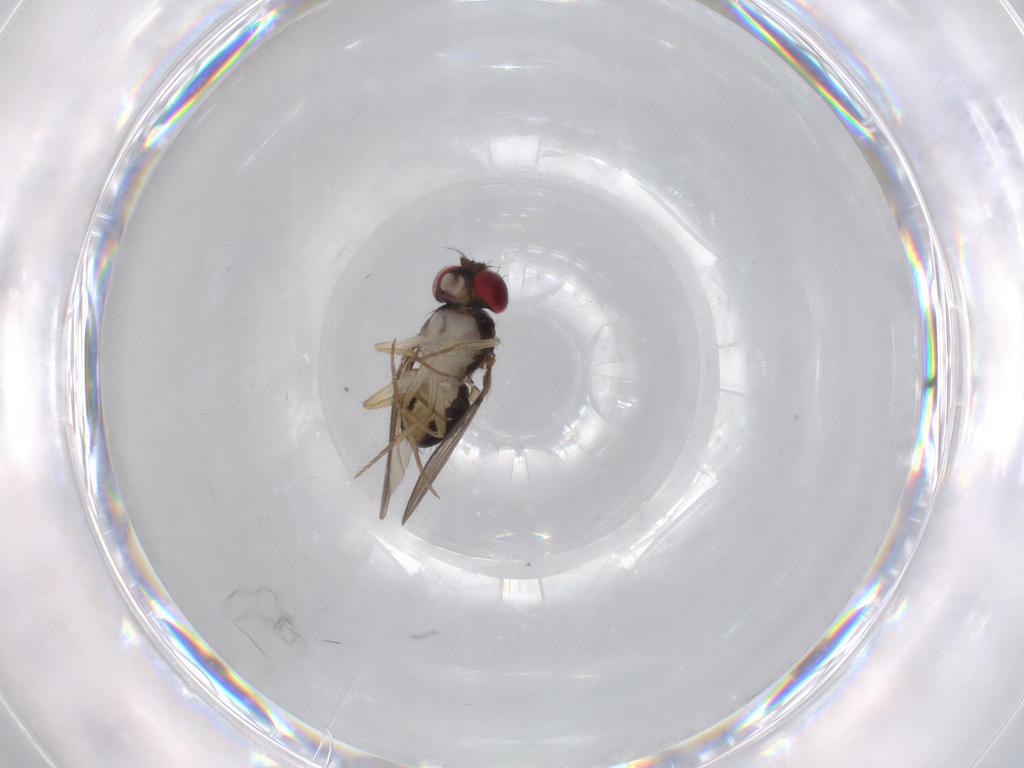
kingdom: Animalia
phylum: Arthropoda
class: Insecta
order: Diptera
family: Drosophilidae
